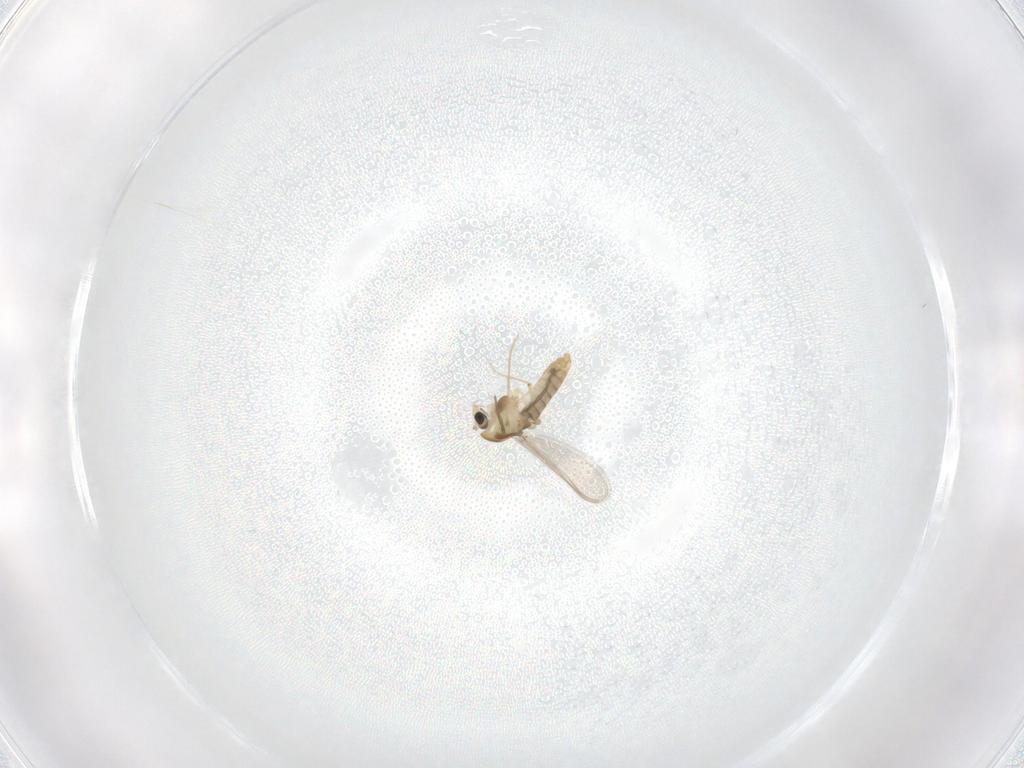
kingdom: Animalia
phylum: Arthropoda
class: Insecta
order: Diptera
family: Chironomidae
